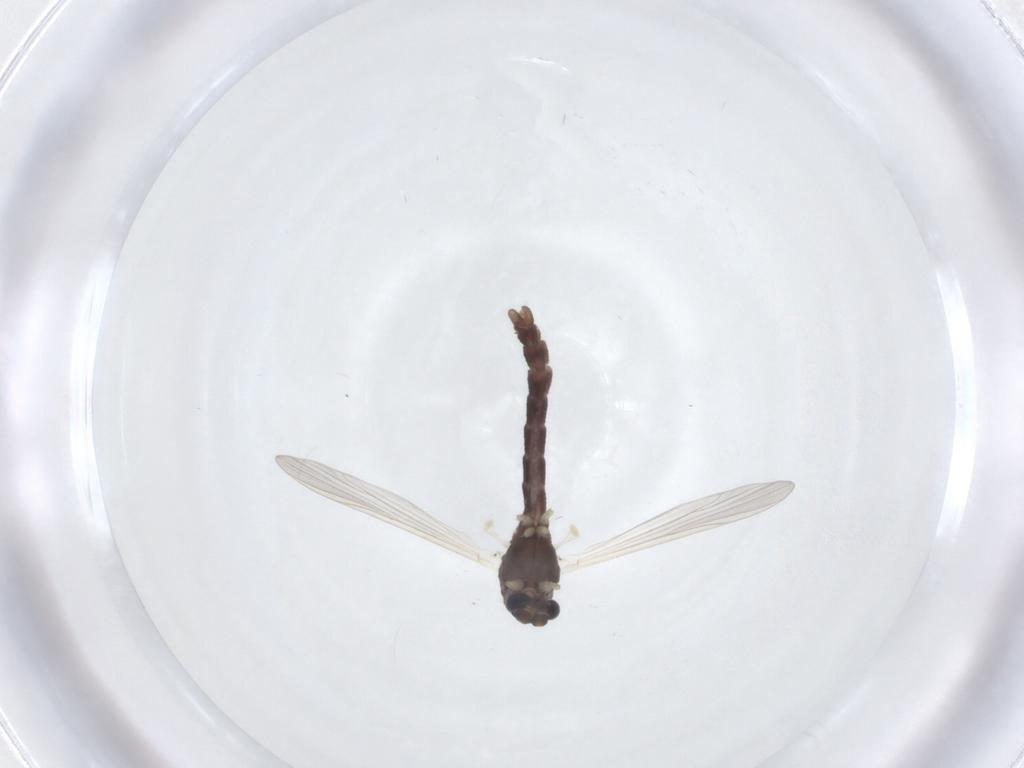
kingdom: Animalia
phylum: Arthropoda
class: Insecta
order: Diptera
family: Chironomidae
